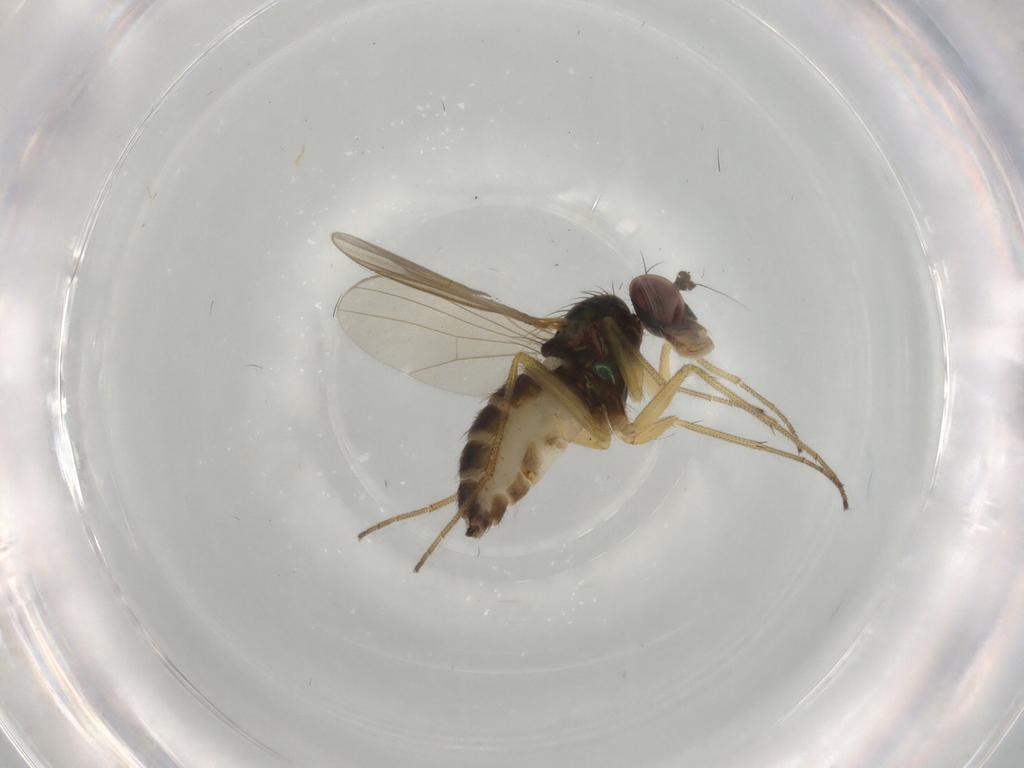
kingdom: Animalia
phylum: Arthropoda
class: Insecta
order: Diptera
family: Dolichopodidae
